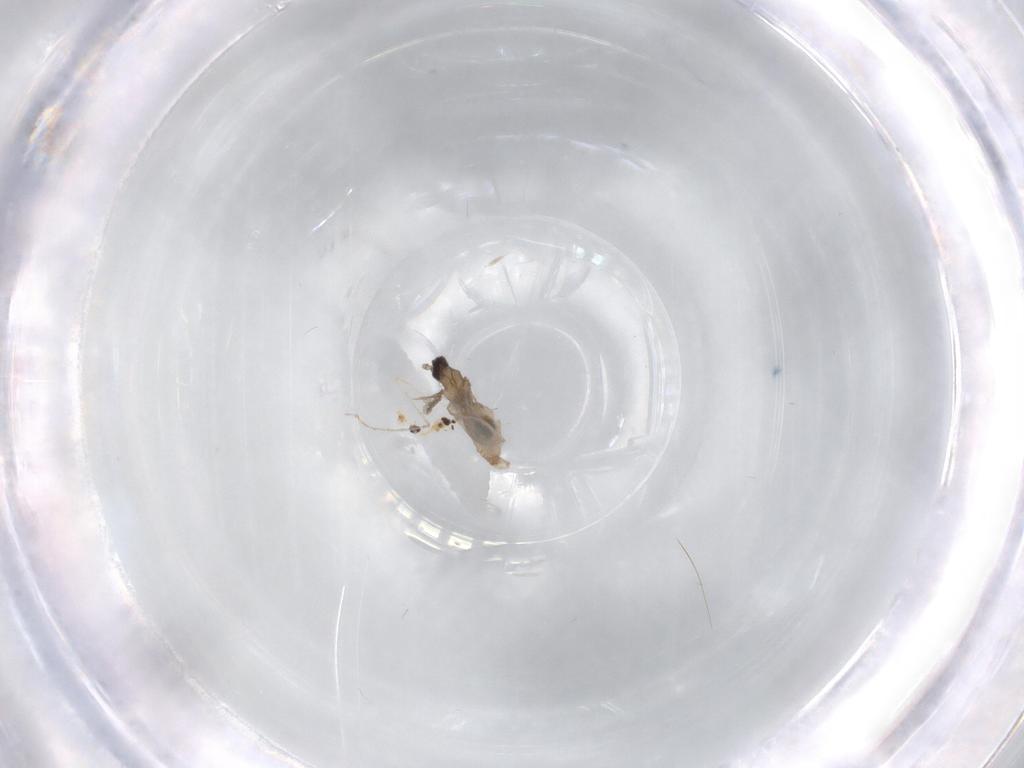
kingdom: Animalia
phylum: Arthropoda
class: Insecta
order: Diptera
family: Cecidomyiidae
